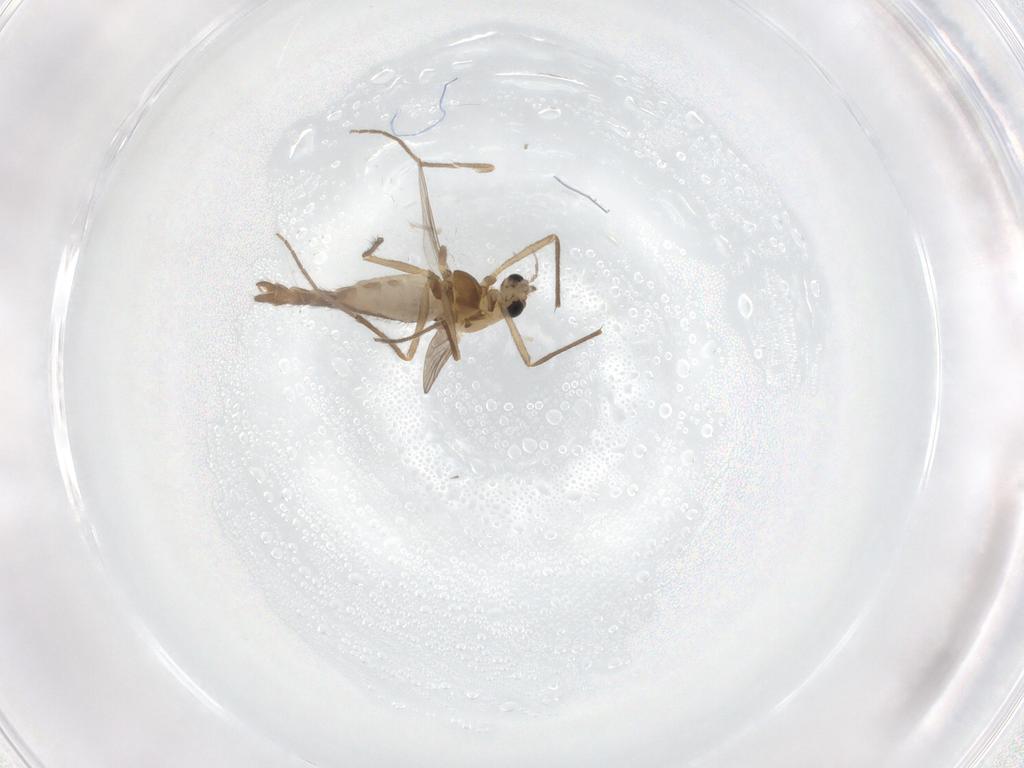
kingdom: Animalia
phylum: Arthropoda
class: Insecta
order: Diptera
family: Chironomidae
